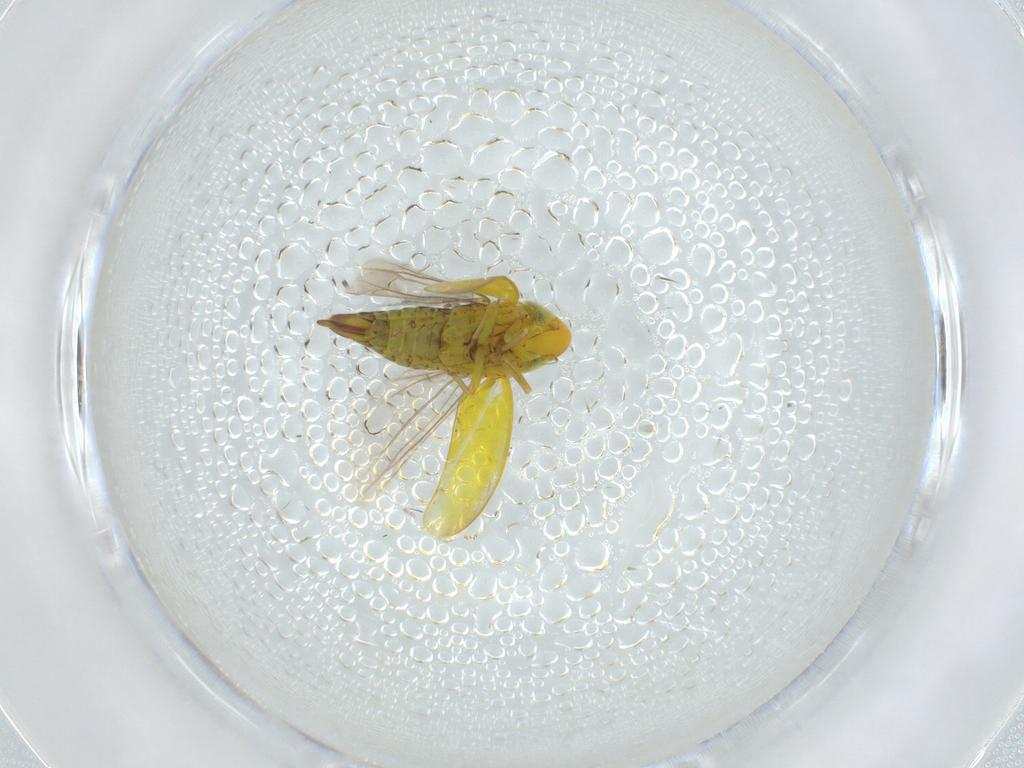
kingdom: Animalia
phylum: Arthropoda
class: Insecta
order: Hemiptera
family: Cicadellidae
